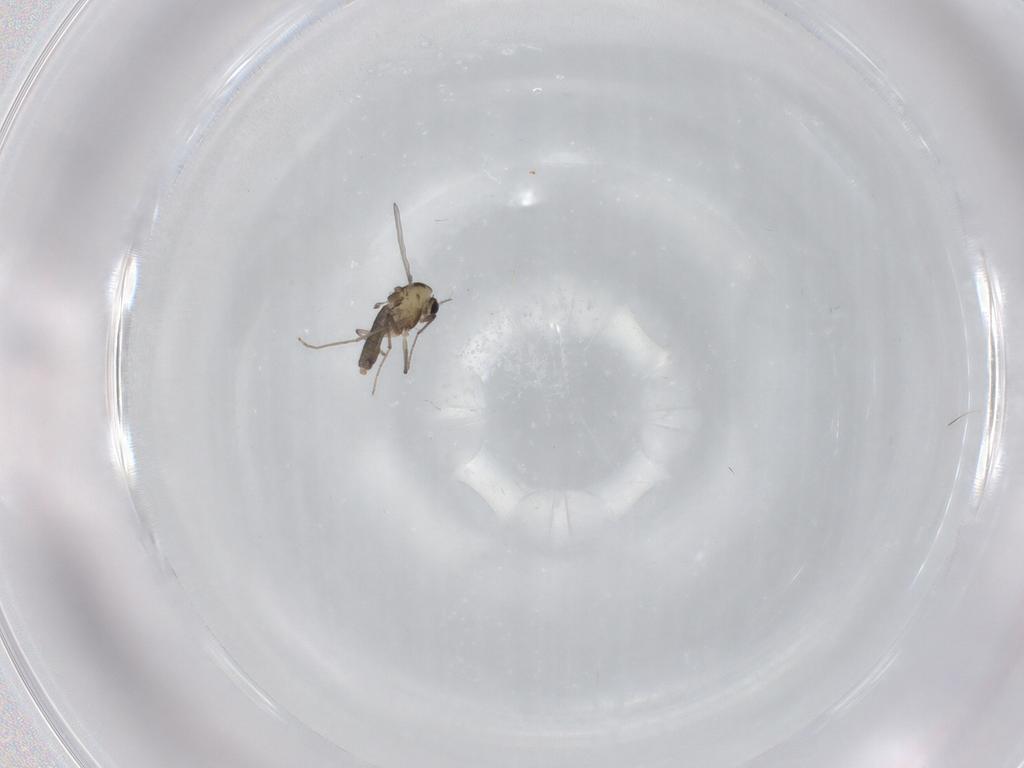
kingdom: Animalia
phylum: Arthropoda
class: Insecta
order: Diptera
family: Chironomidae
